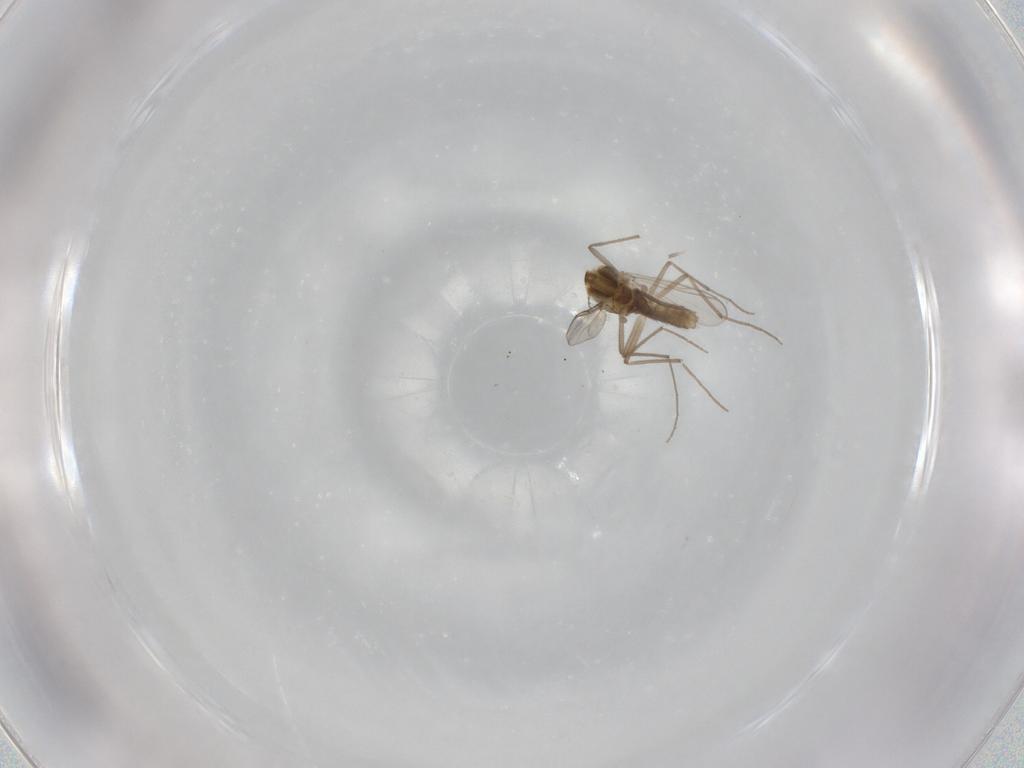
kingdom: Animalia
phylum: Arthropoda
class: Insecta
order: Diptera
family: Chironomidae
